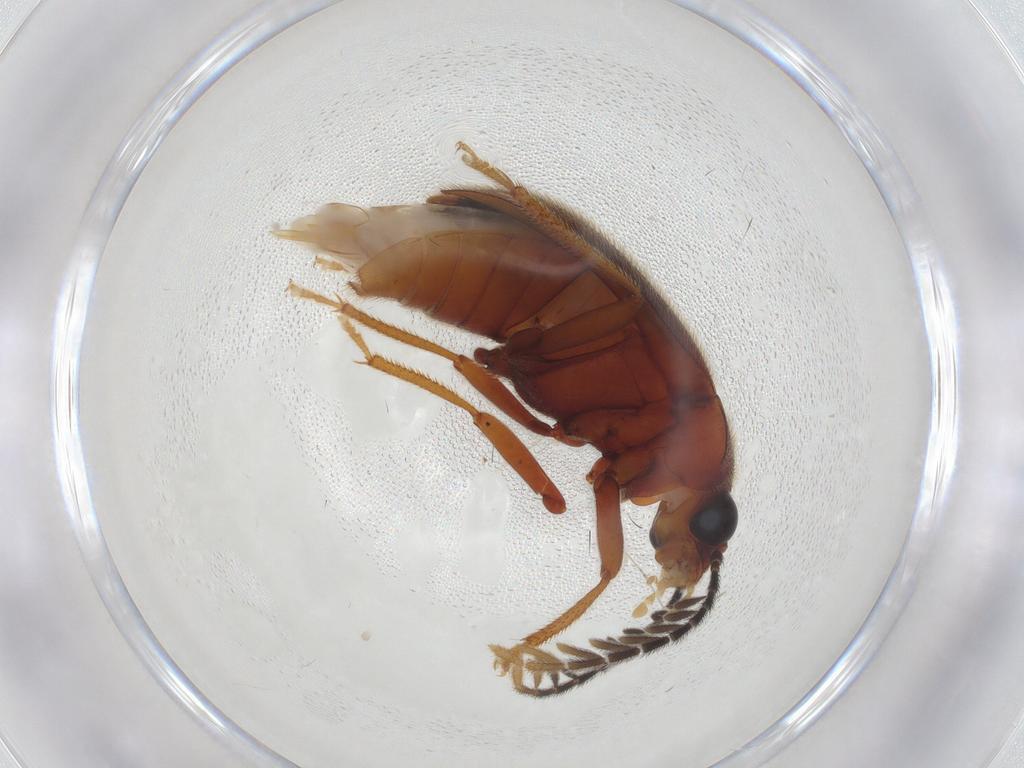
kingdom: Animalia
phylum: Arthropoda
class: Insecta
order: Coleoptera
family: Ptilodactylidae
